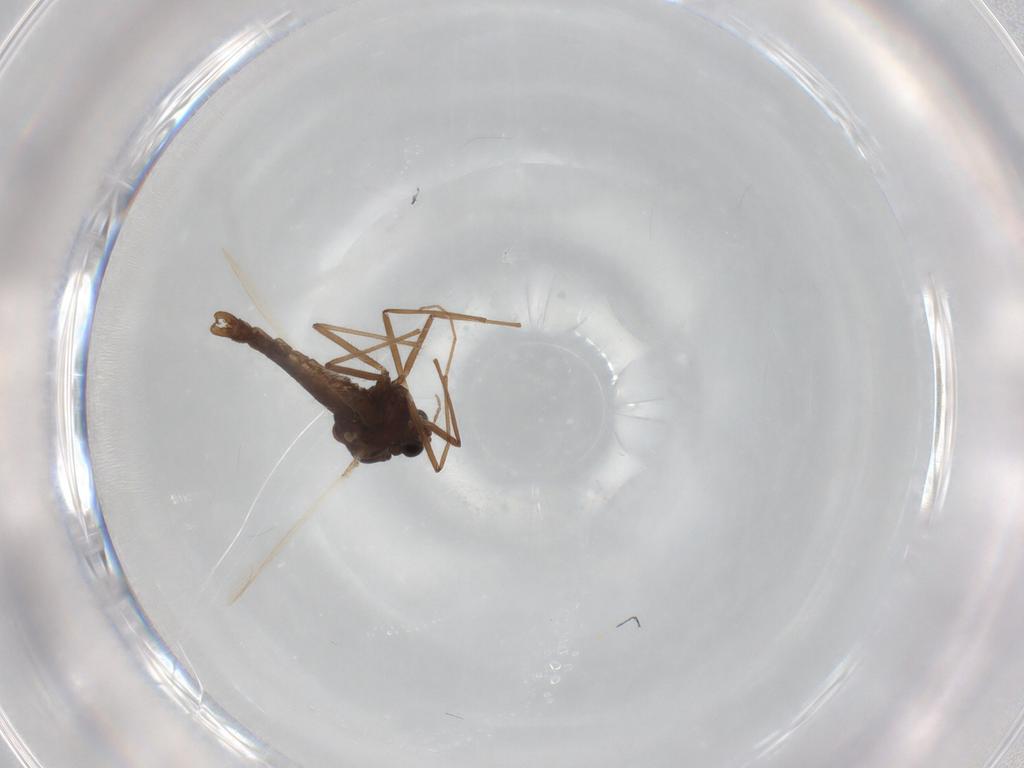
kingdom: Animalia
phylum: Arthropoda
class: Insecta
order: Diptera
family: Chironomidae
